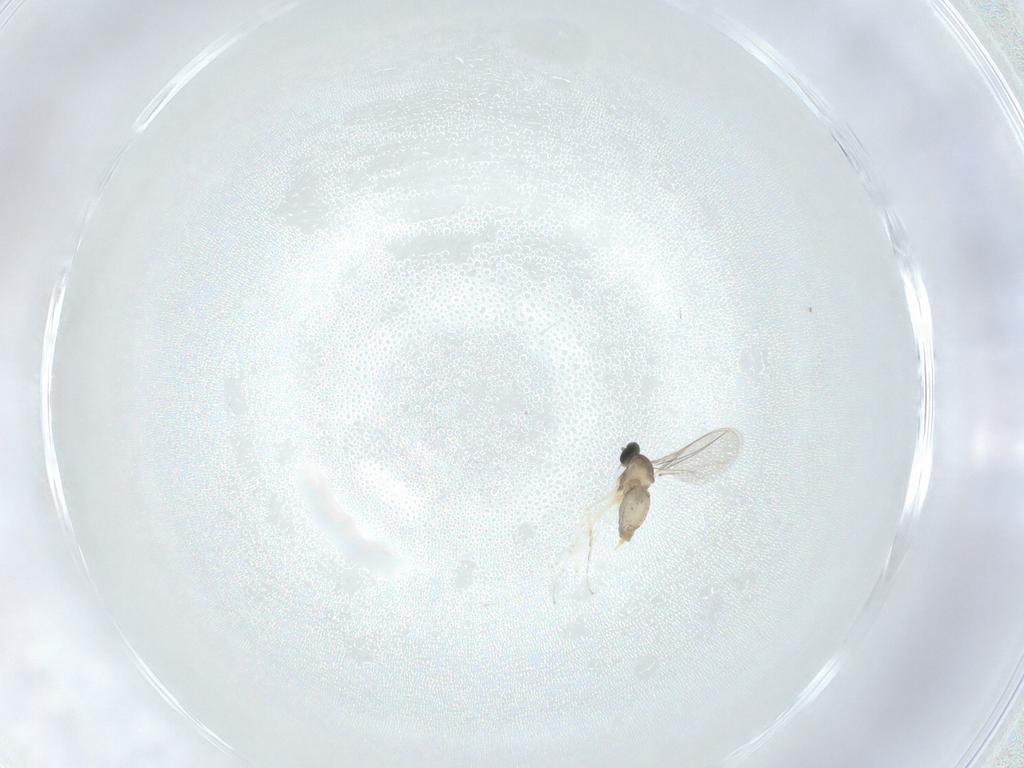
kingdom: Animalia
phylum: Arthropoda
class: Insecta
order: Diptera
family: Cecidomyiidae
